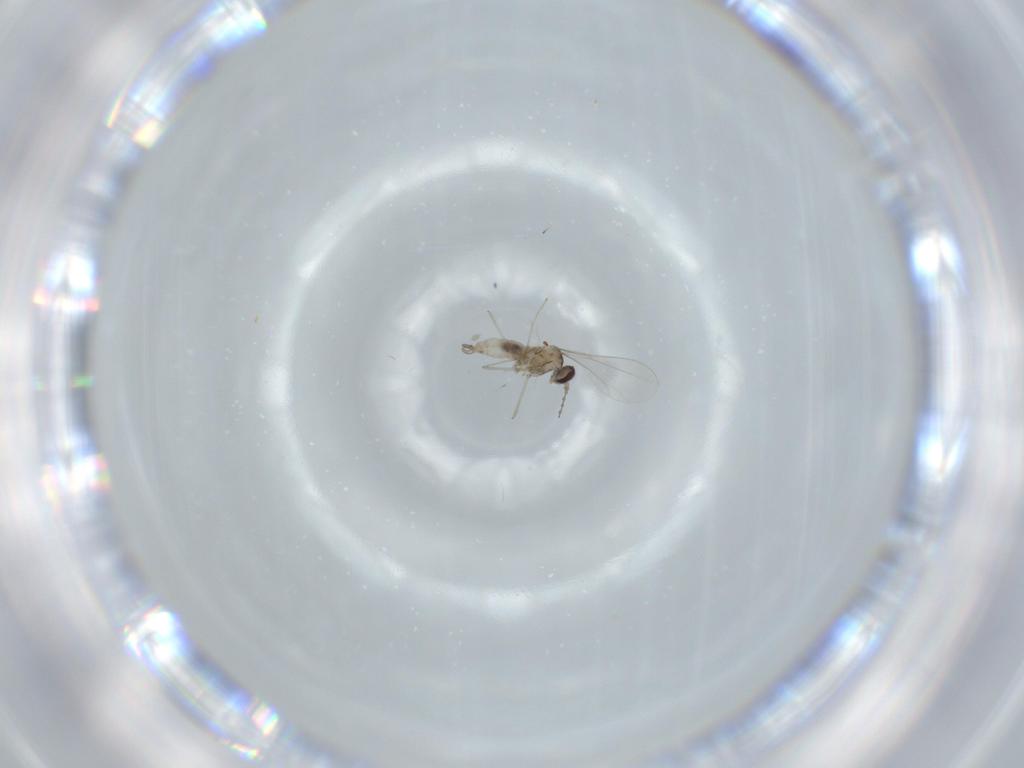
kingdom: Animalia
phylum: Arthropoda
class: Insecta
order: Diptera
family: Cecidomyiidae
